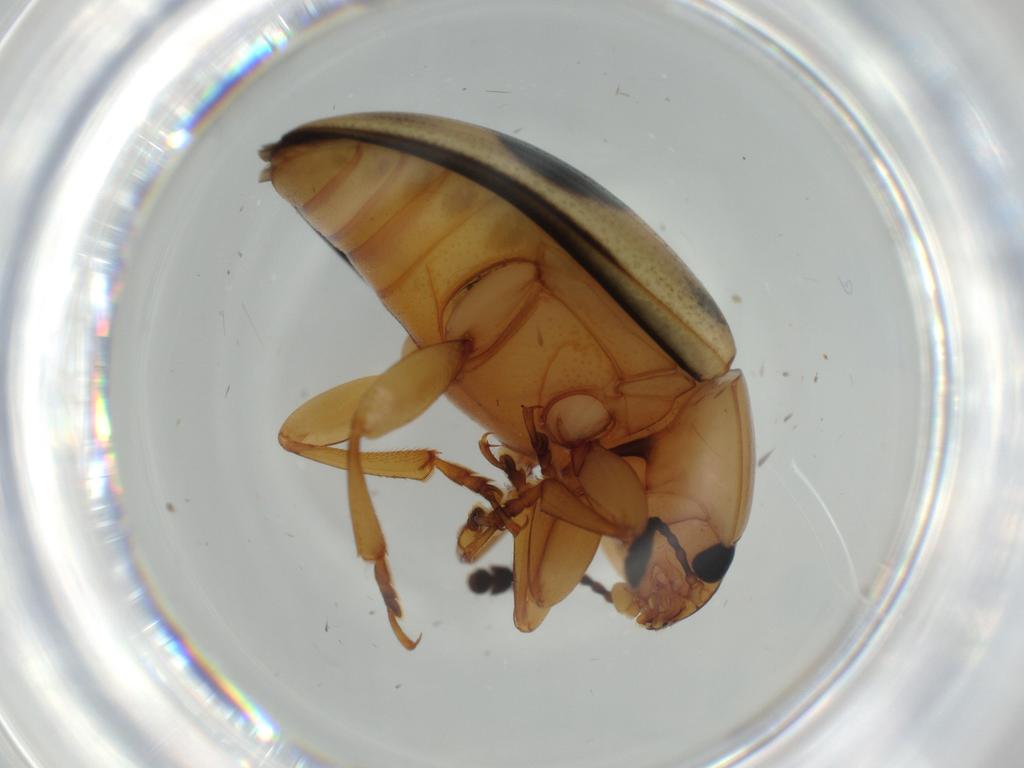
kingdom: Animalia
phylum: Arthropoda
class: Insecta
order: Coleoptera
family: Erotylidae
